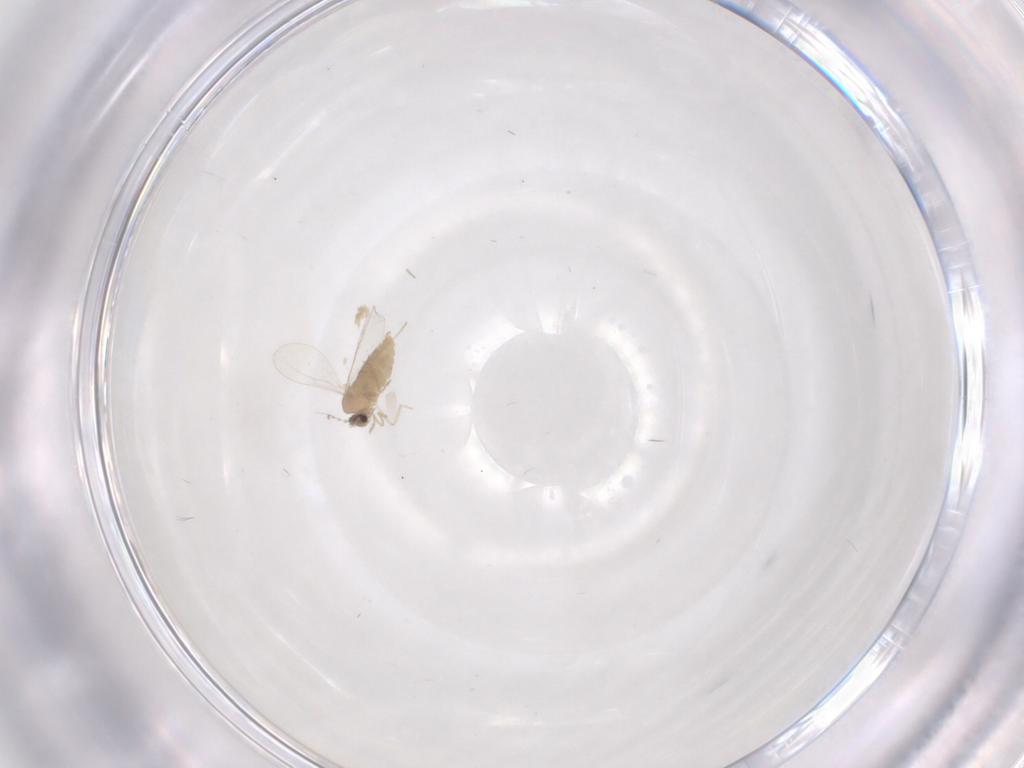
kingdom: Animalia
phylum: Arthropoda
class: Insecta
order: Diptera
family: Cecidomyiidae
